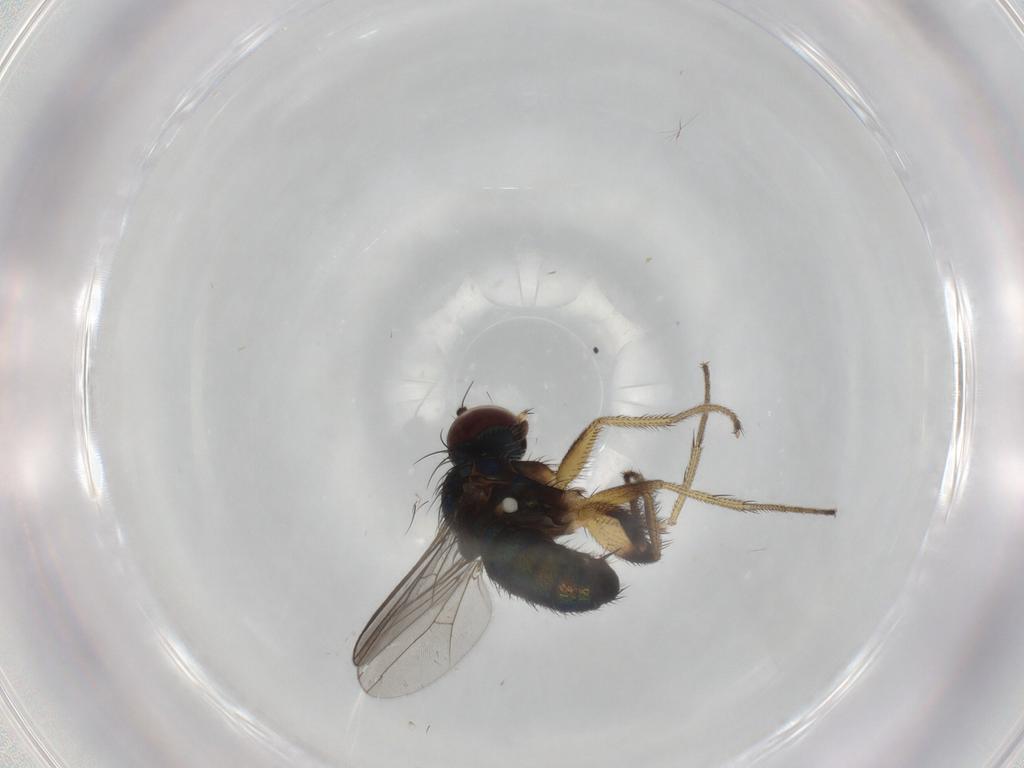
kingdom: Animalia
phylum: Arthropoda
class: Insecta
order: Diptera
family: Dolichopodidae
